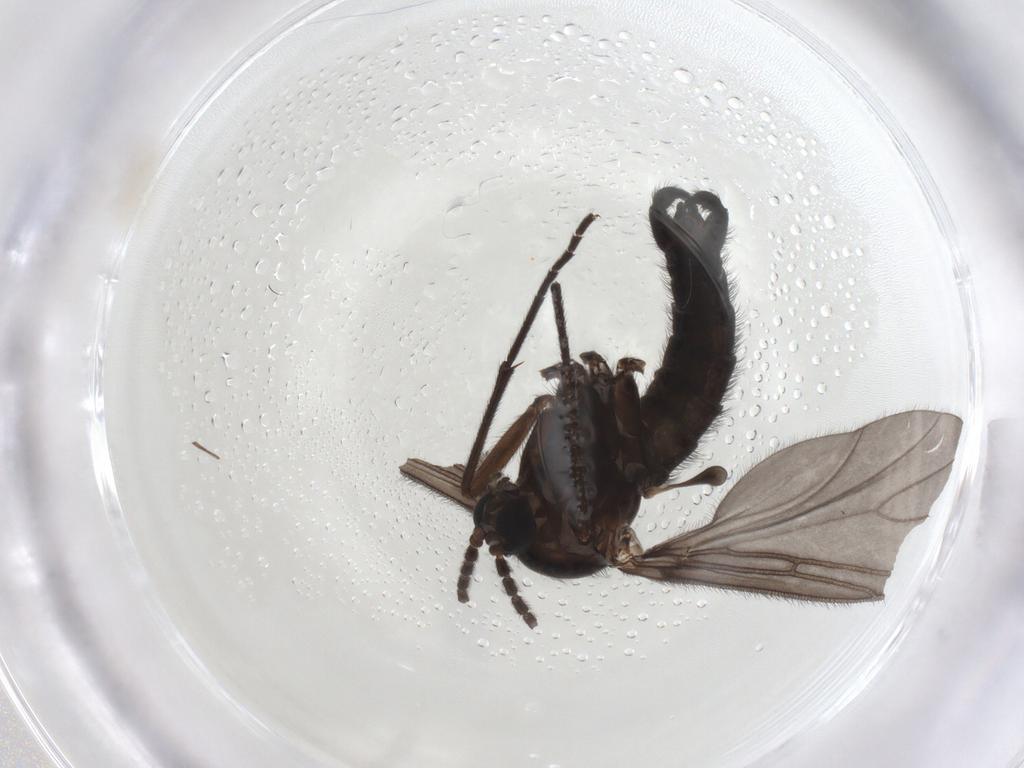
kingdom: Animalia
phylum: Arthropoda
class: Insecta
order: Diptera
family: Sciaridae
